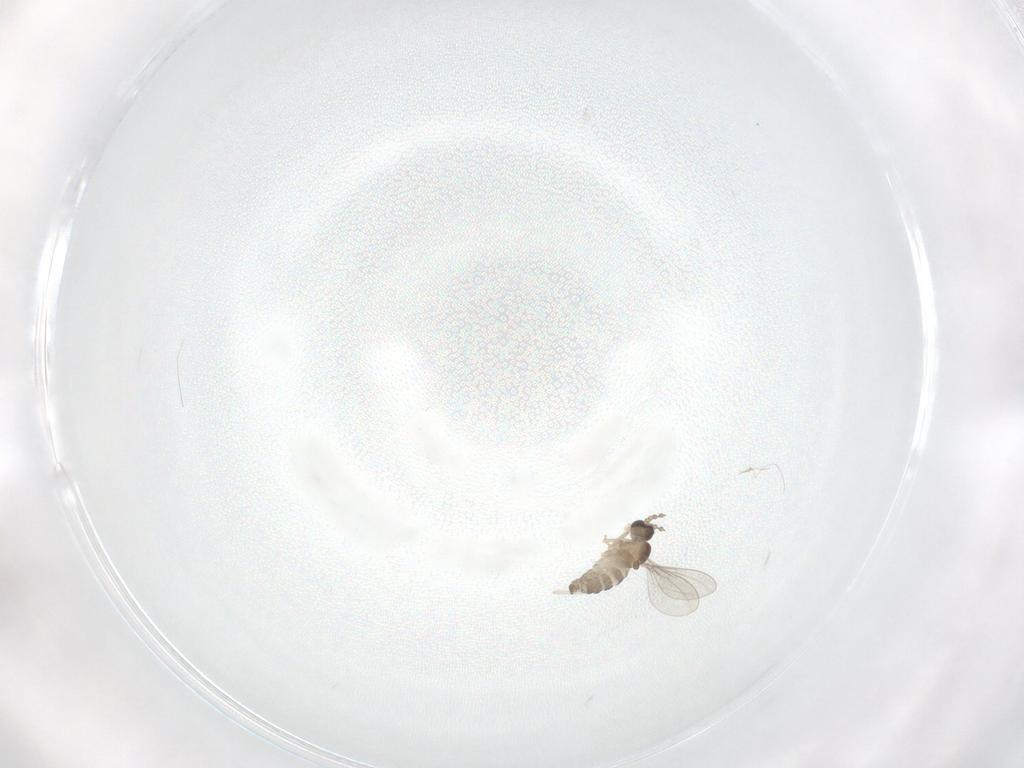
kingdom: Animalia
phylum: Arthropoda
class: Insecta
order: Diptera
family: Cecidomyiidae
